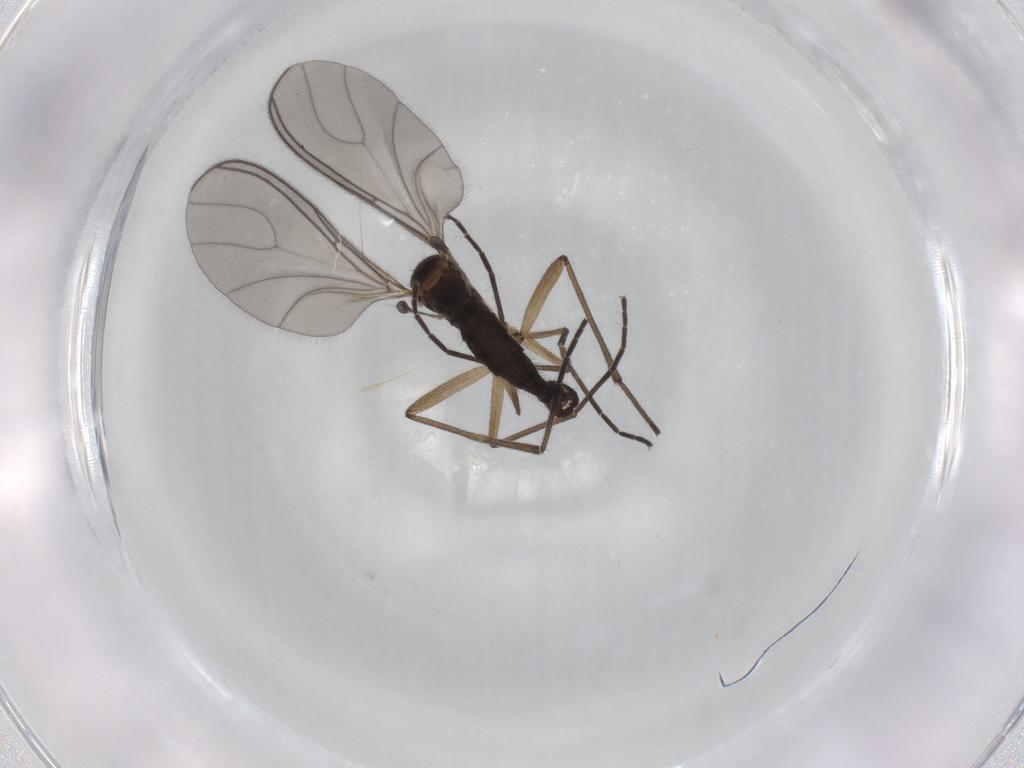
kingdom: Animalia
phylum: Arthropoda
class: Insecta
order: Diptera
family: Sciaridae
